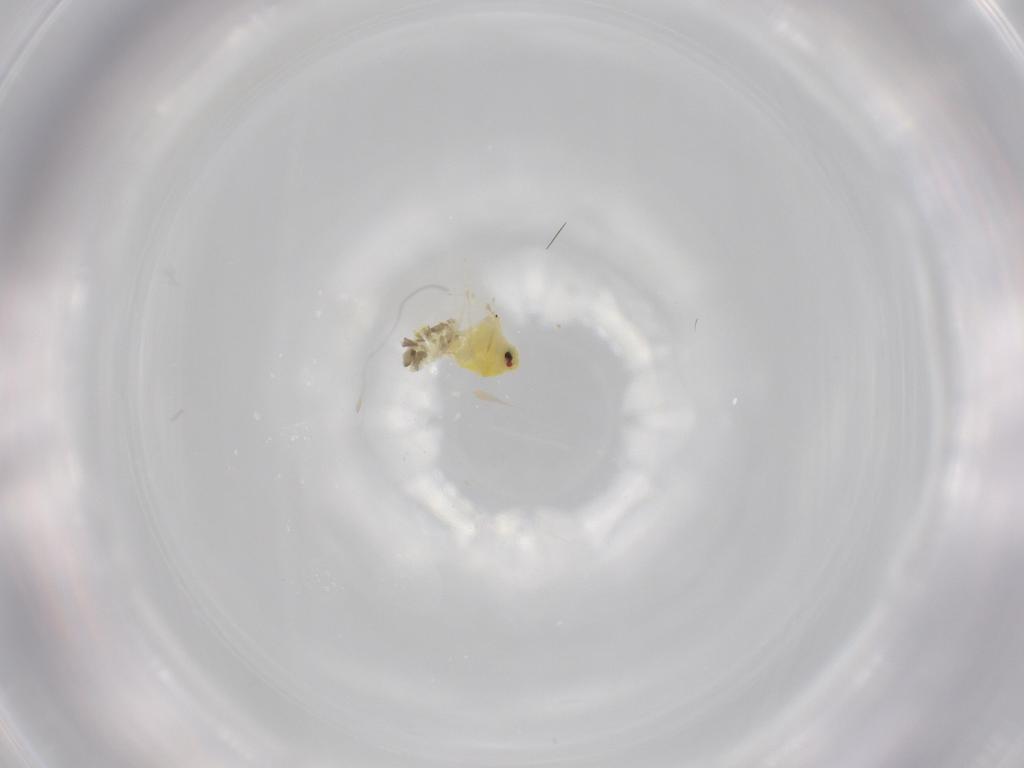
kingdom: Animalia
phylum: Arthropoda
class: Insecta
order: Hemiptera
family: Aleyrodidae
